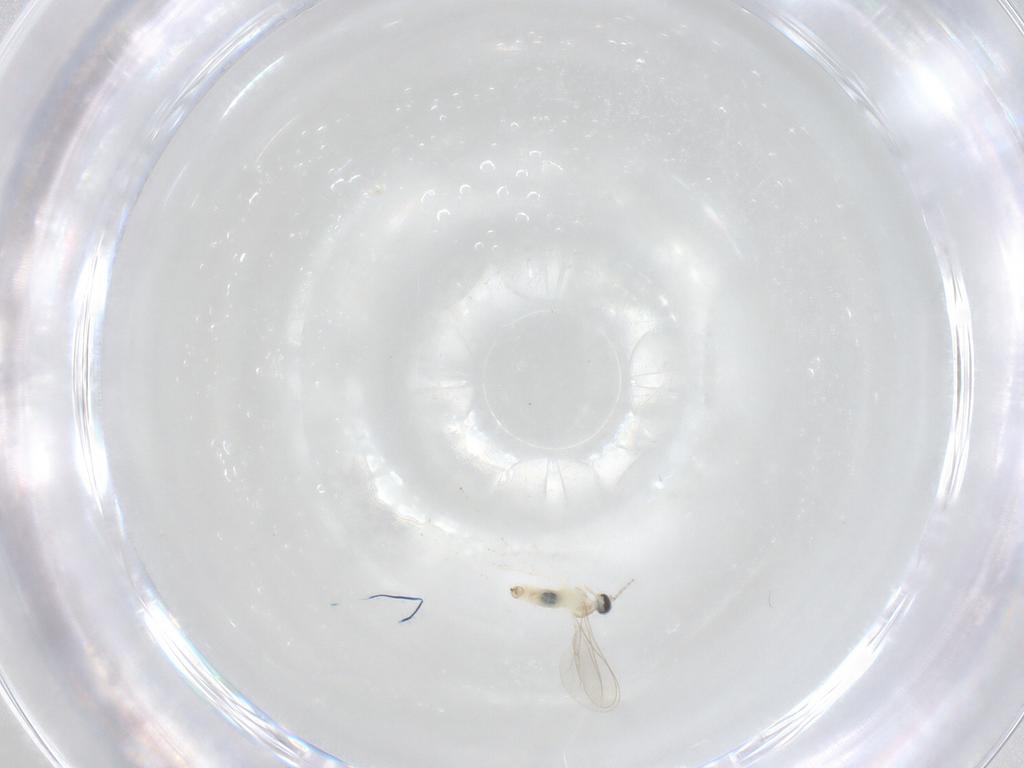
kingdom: Animalia
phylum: Arthropoda
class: Insecta
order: Diptera
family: Cecidomyiidae
